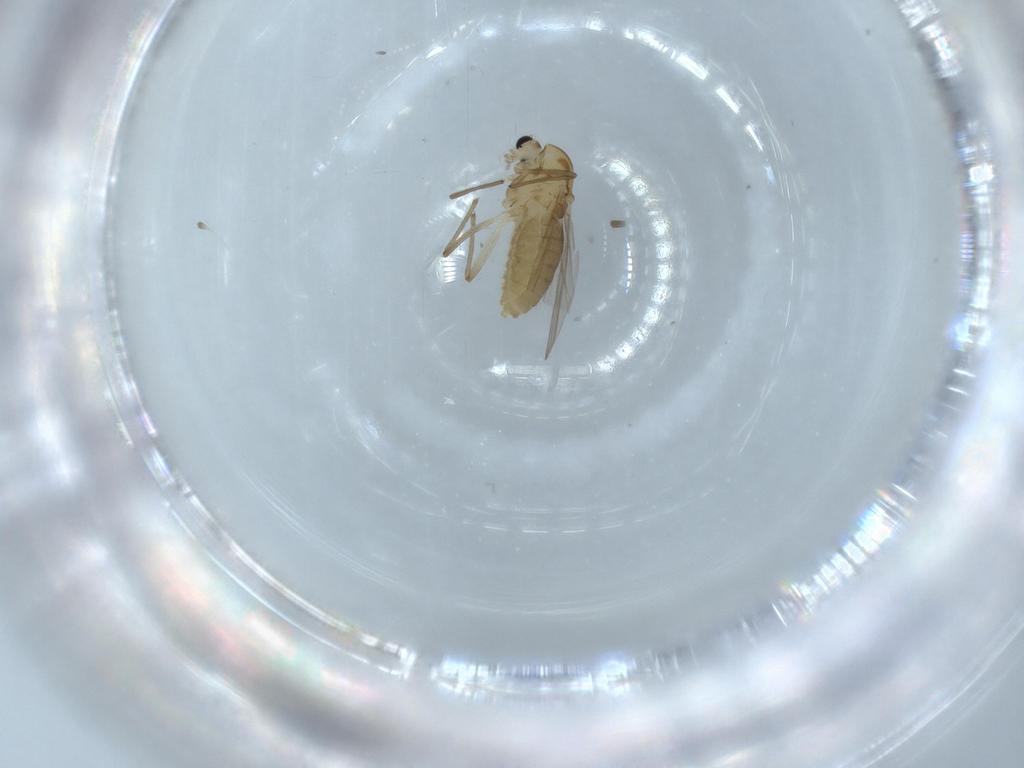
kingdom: Animalia
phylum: Arthropoda
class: Insecta
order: Diptera
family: Chironomidae
